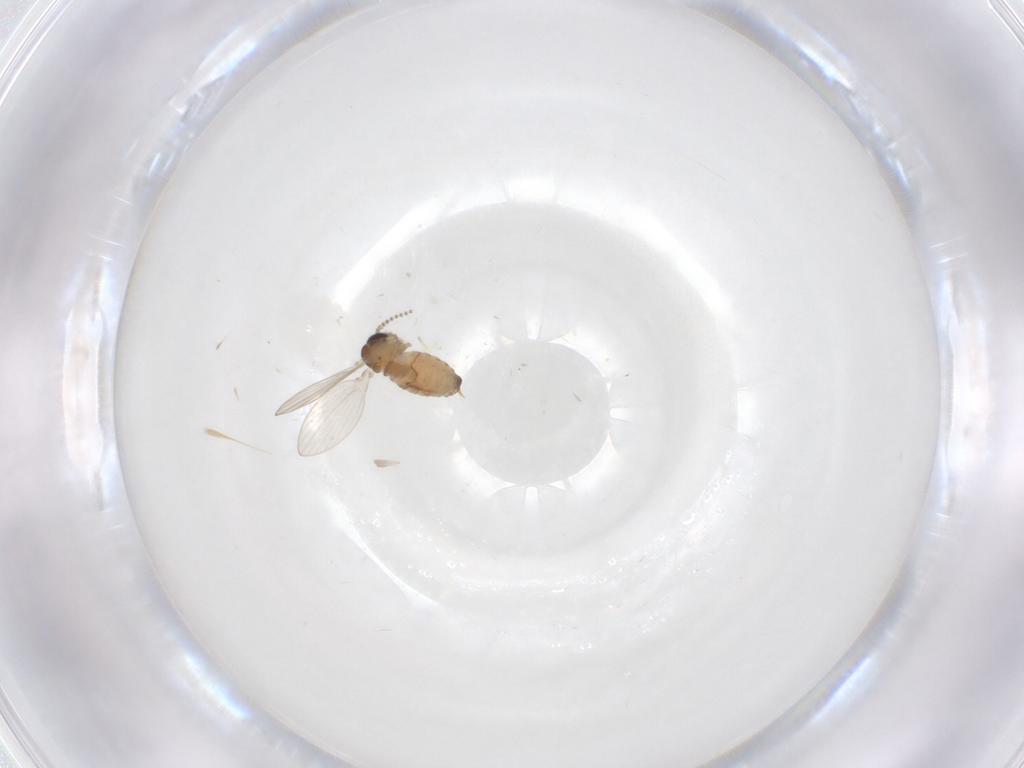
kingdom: Animalia
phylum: Arthropoda
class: Insecta
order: Diptera
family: Psychodidae
